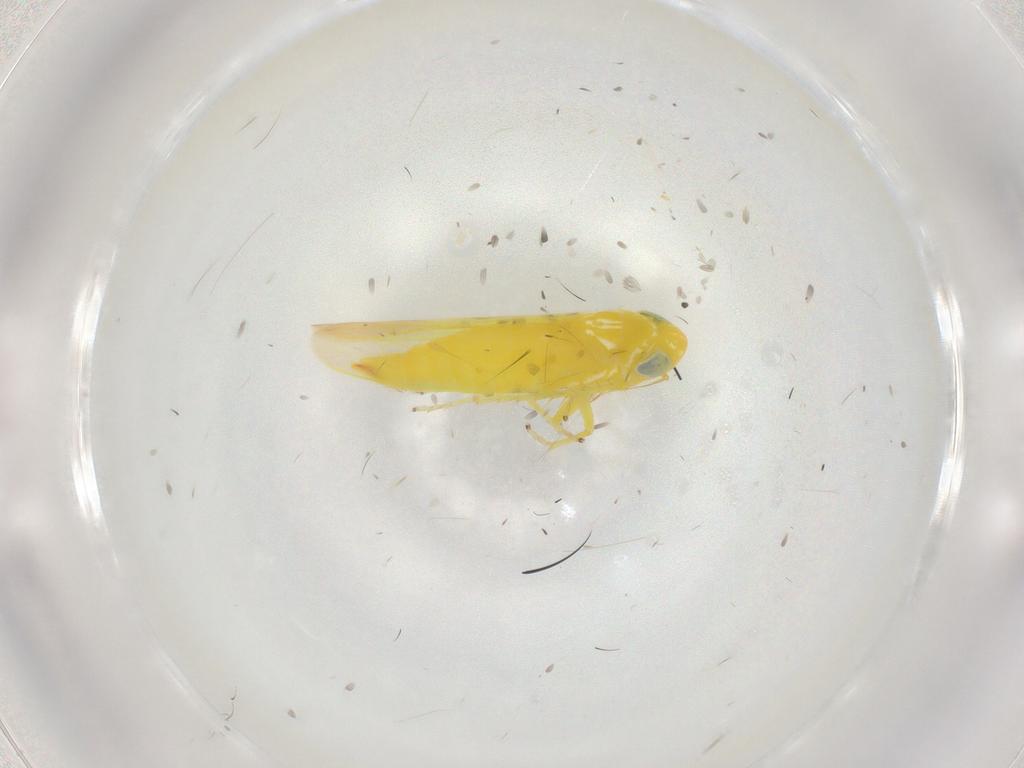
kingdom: Animalia
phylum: Arthropoda
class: Insecta
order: Hemiptera
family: Cicadellidae
